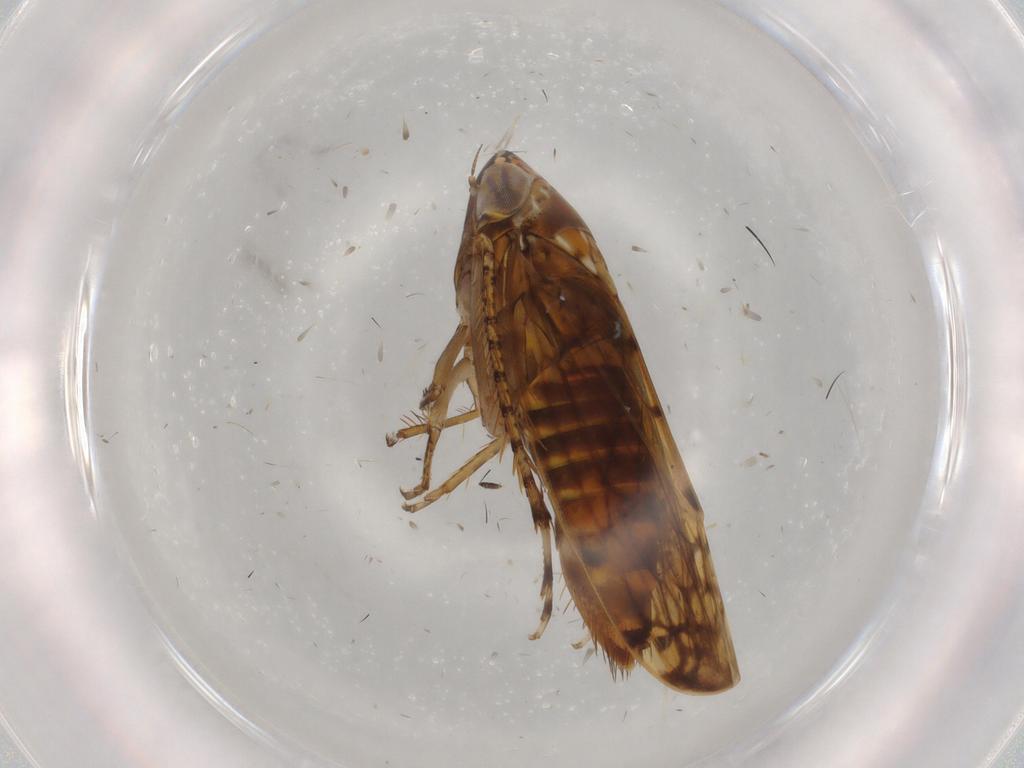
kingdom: Animalia
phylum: Arthropoda
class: Insecta
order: Hemiptera
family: Cicadellidae
